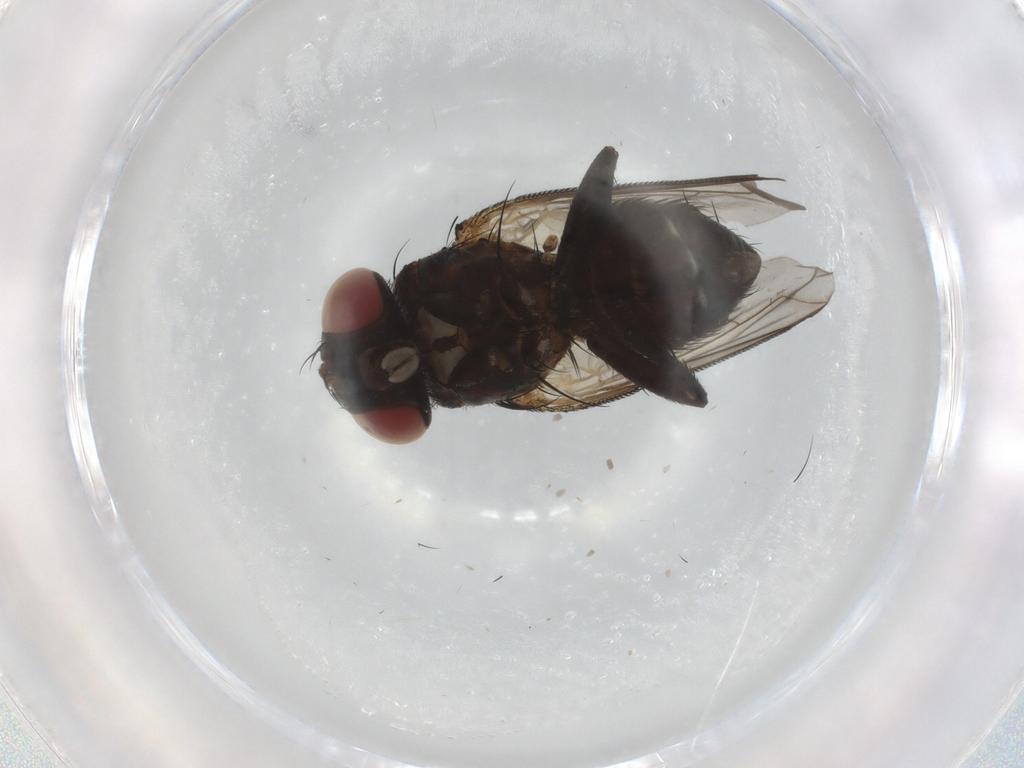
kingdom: Animalia
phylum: Arthropoda
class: Insecta
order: Diptera
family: Tachinidae
